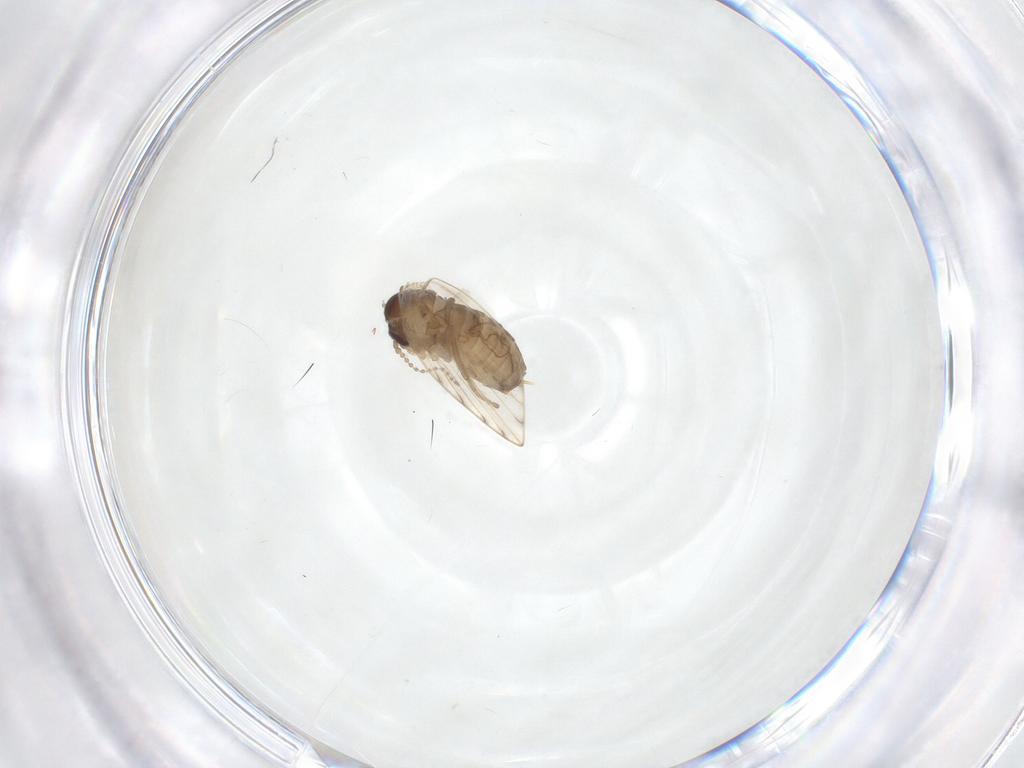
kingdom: Animalia
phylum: Arthropoda
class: Insecta
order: Diptera
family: Psychodidae
